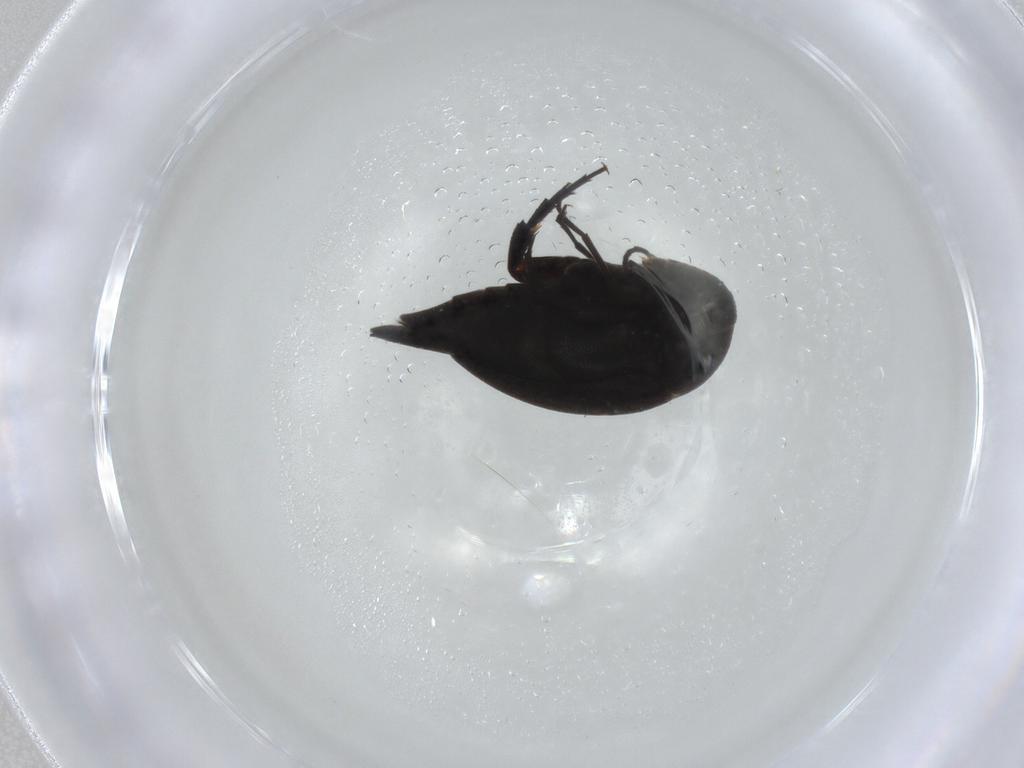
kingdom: Animalia
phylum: Arthropoda
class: Insecta
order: Coleoptera
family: Mordellidae
